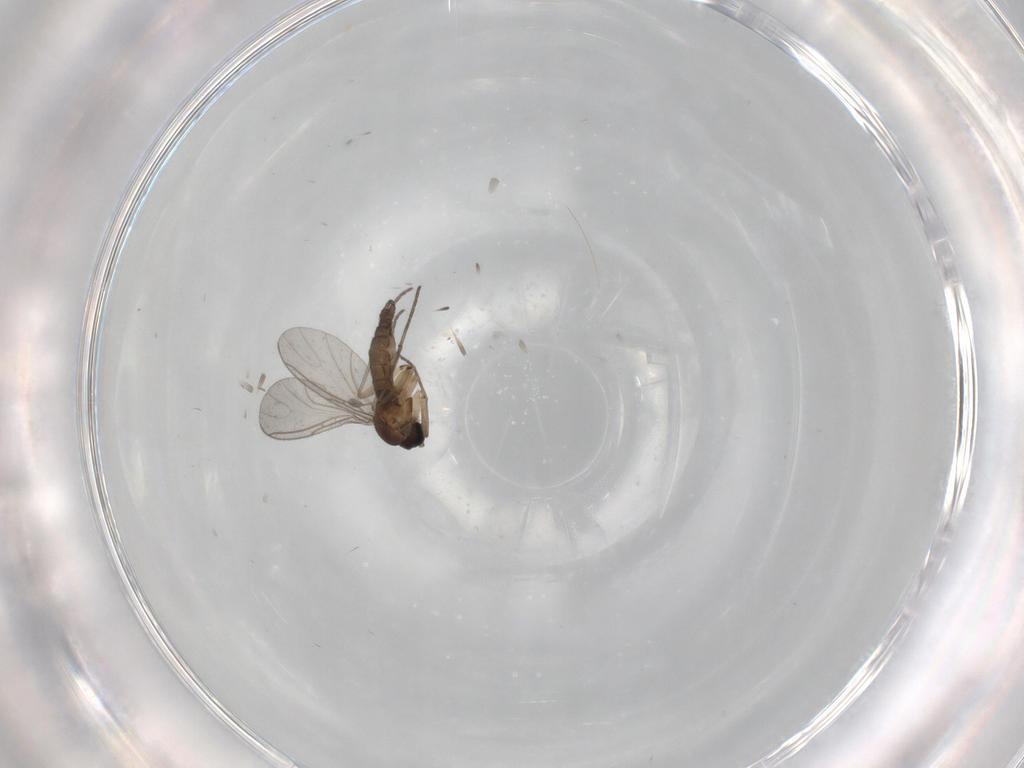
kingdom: Animalia
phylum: Arthropoda
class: Insecta
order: Diptera
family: Sciaridae
